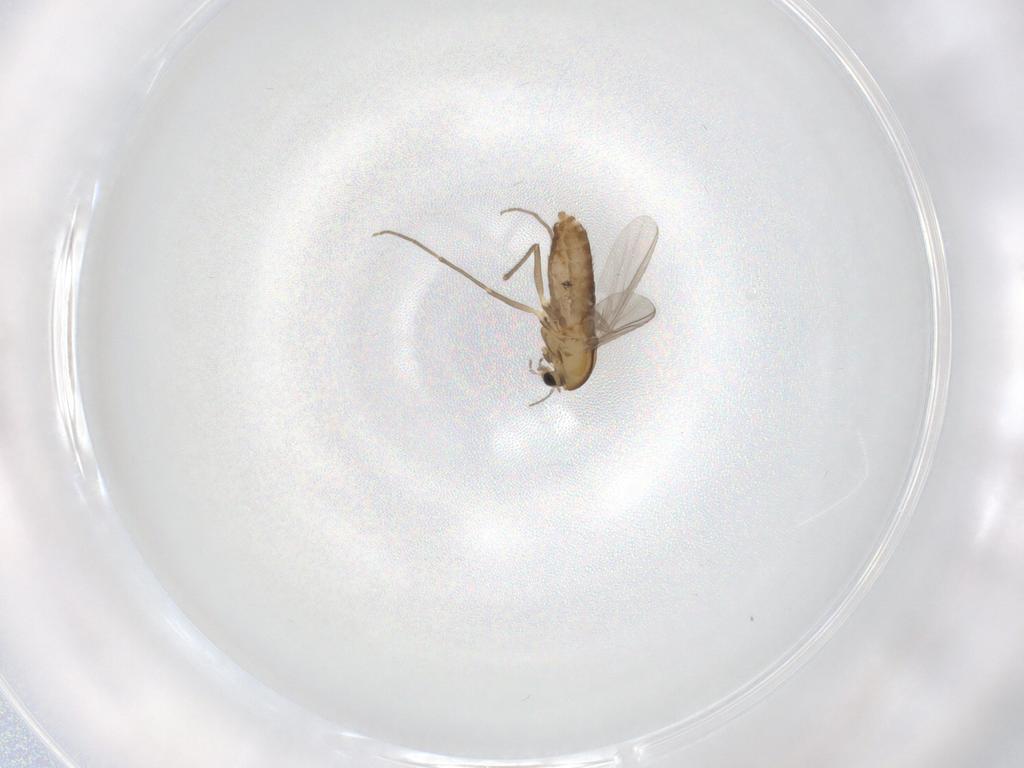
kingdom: Animalia
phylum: Arthropoda
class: Insecta
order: Diptera
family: Chironomidae
